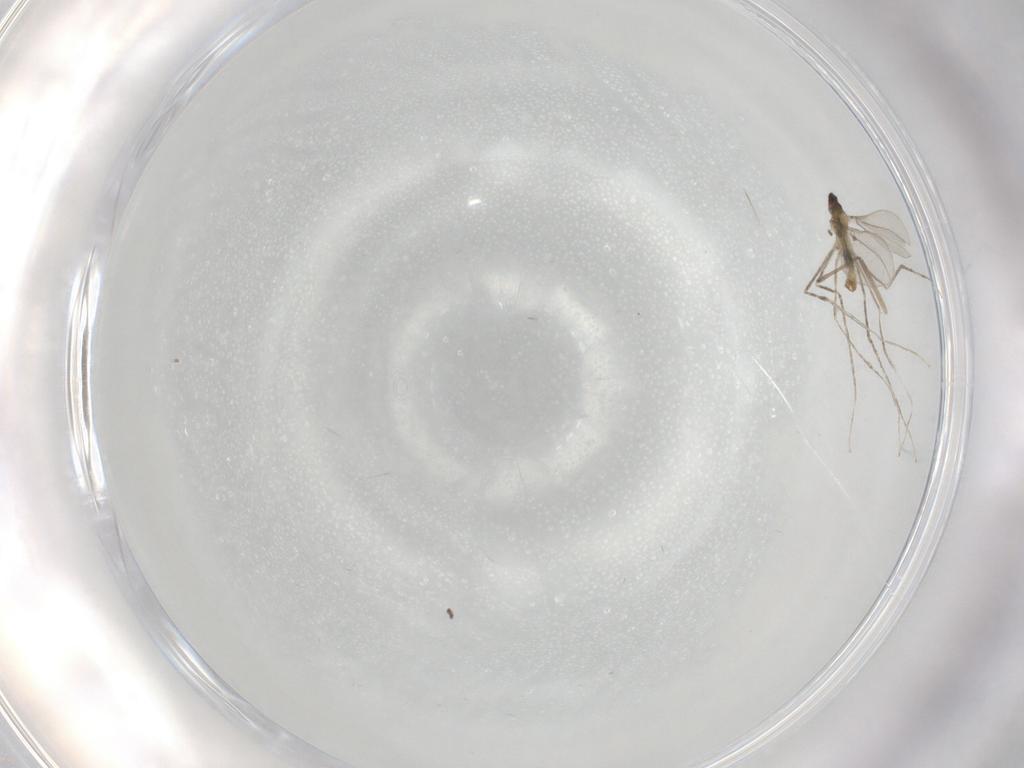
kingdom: Animalia
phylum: Arthropoda
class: Insecta
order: Diptera
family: Cecidomyiidae
